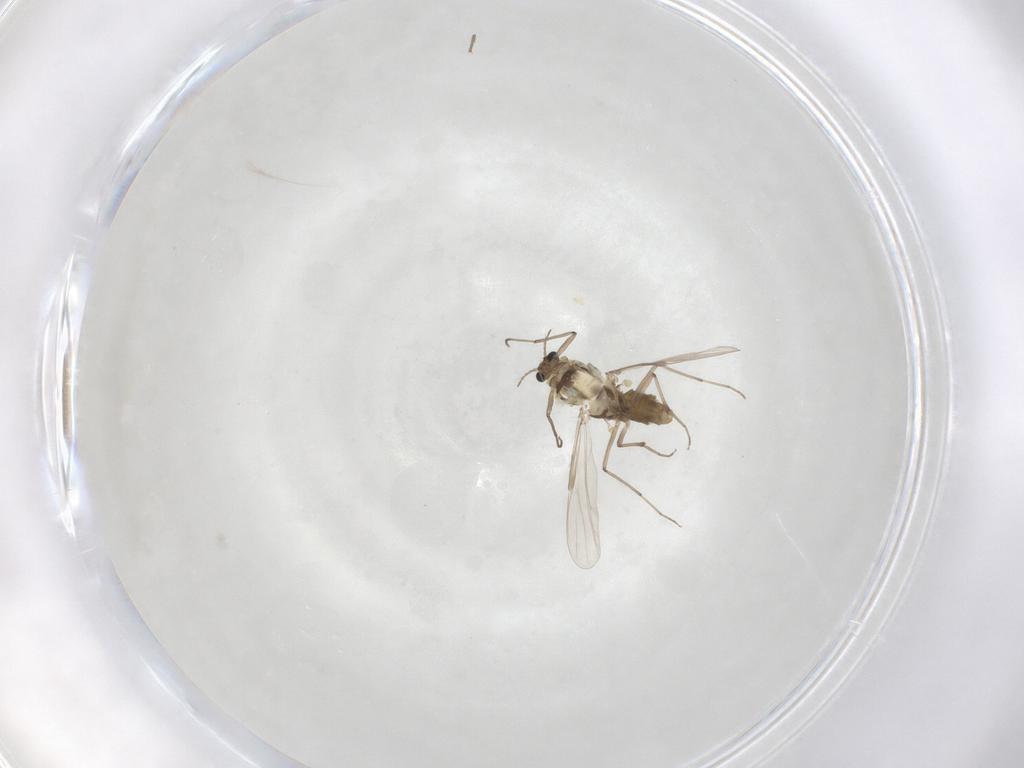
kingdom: Animalia
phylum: Arthropoda
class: Insecta
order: Diptera
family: Chironomidae
